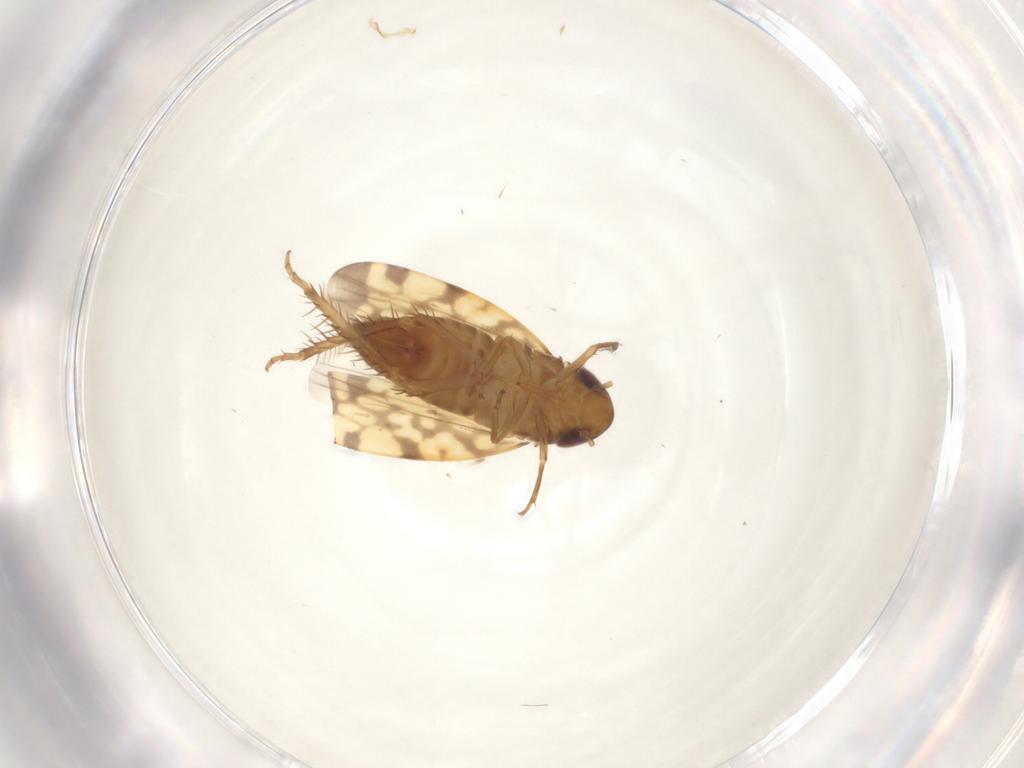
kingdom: Animalia
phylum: Arthropoda
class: Insecta
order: Hemiptera
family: Cicadellidae
